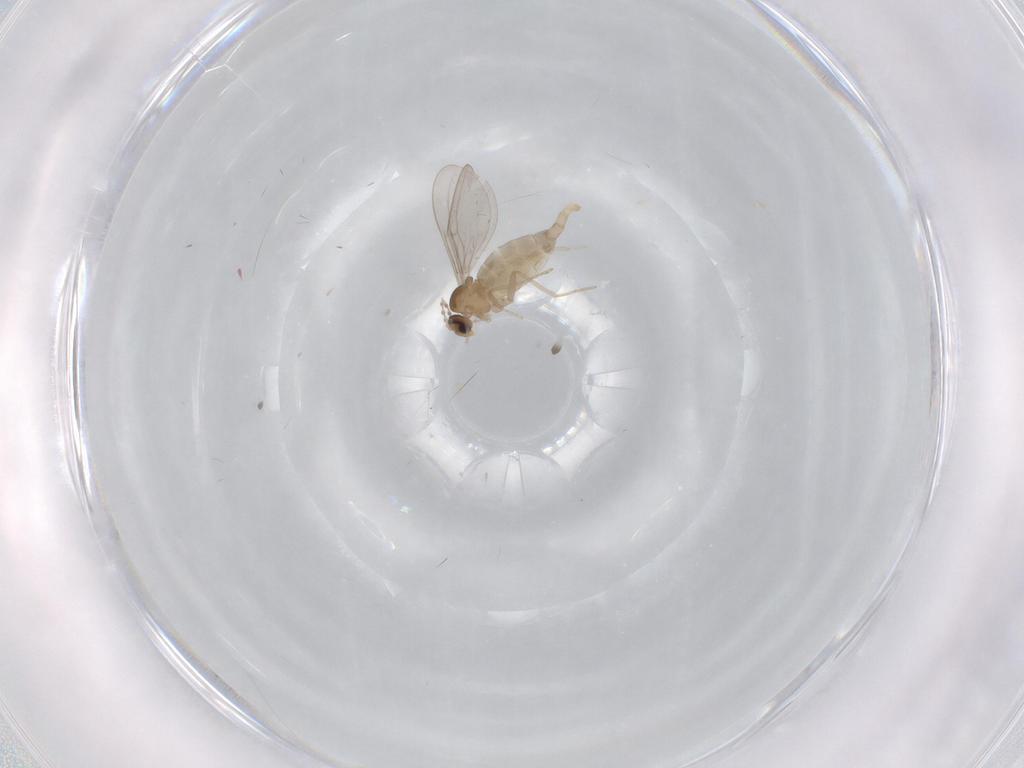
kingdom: Animalia
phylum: Arthropoda
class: Insecta
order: Diptera
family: Cecidomyiidae
